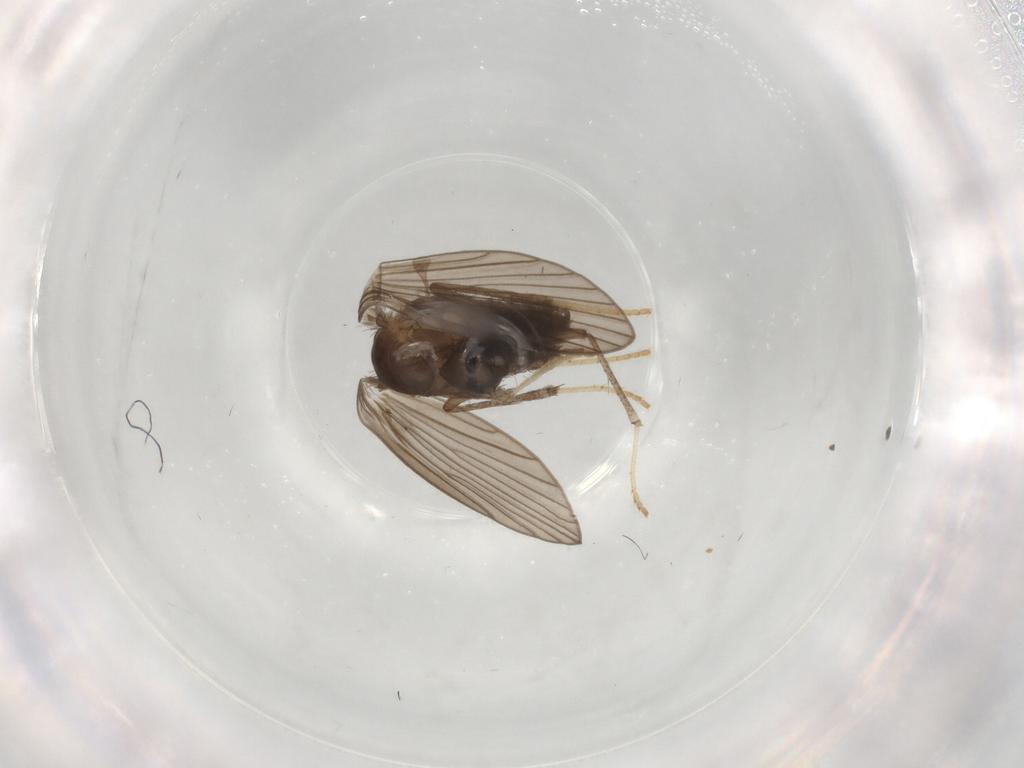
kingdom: Animalia
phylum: Arthropoda
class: Insecta
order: Diptera
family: Psychodidae
